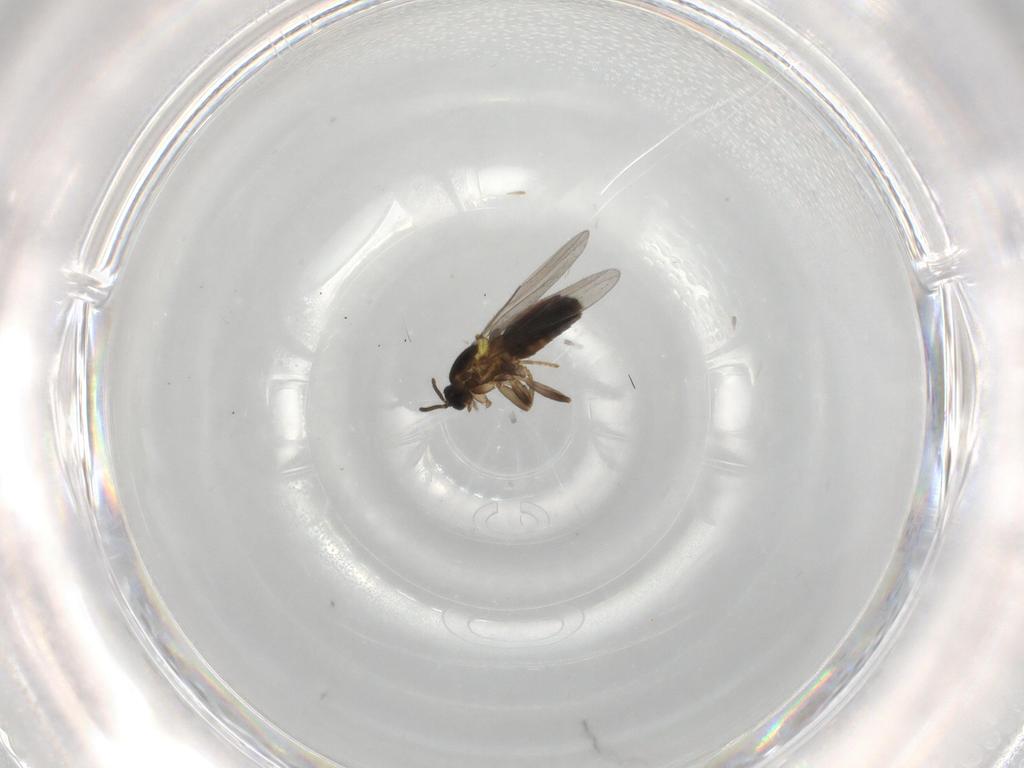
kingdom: Animalia
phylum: Arthropoda
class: Insecta
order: Diptera
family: Scatopsidae
